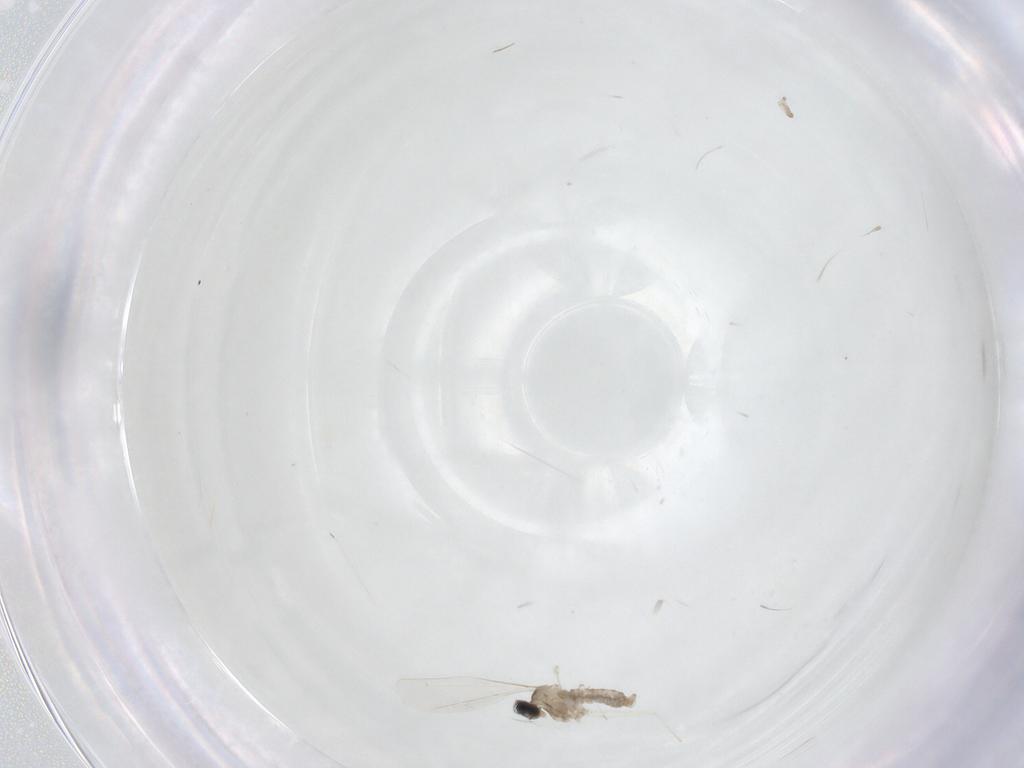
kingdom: Animalia
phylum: Arthropoda
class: Insecta
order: Diptera
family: Cecidomyiidae
